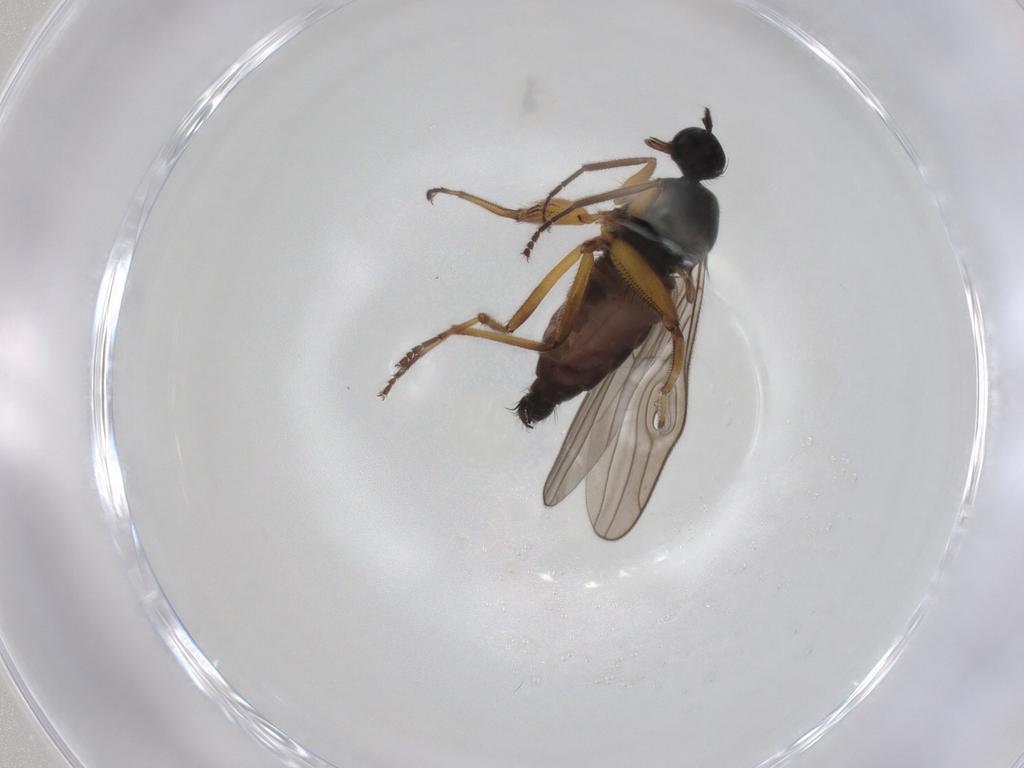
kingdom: Animalia
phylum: Arthropoda
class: Insecta
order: Diptera
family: Hybotidae
